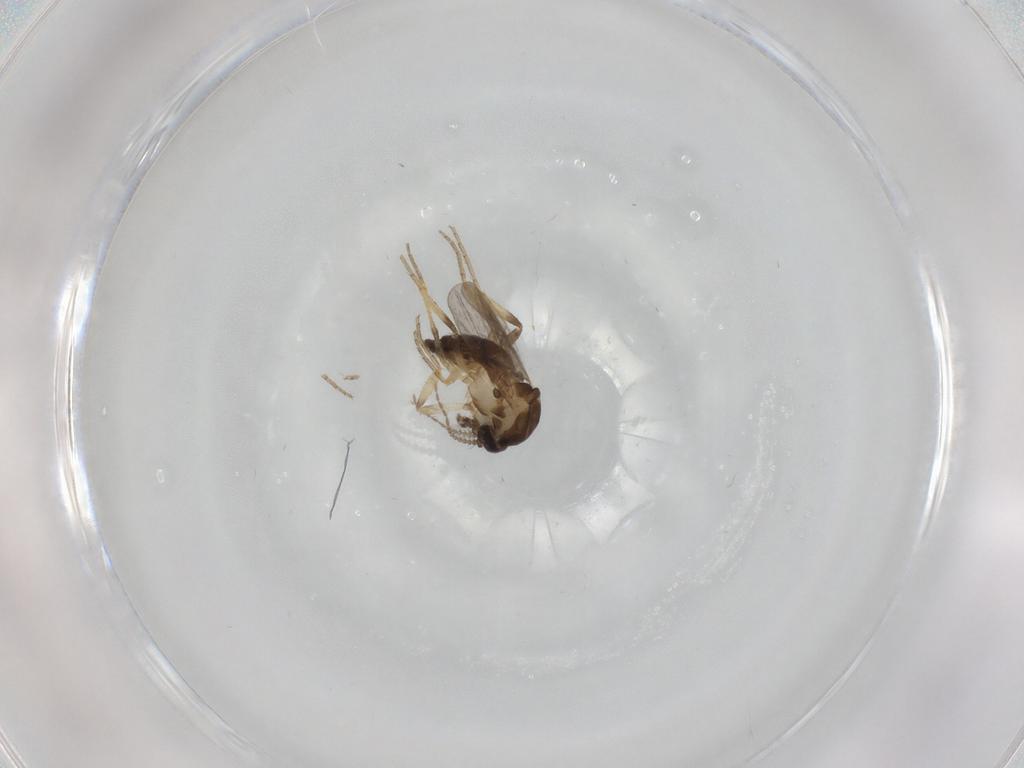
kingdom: Animalia
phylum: Arthropoda
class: Insecta
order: Diptera
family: Ceratopogonidae
